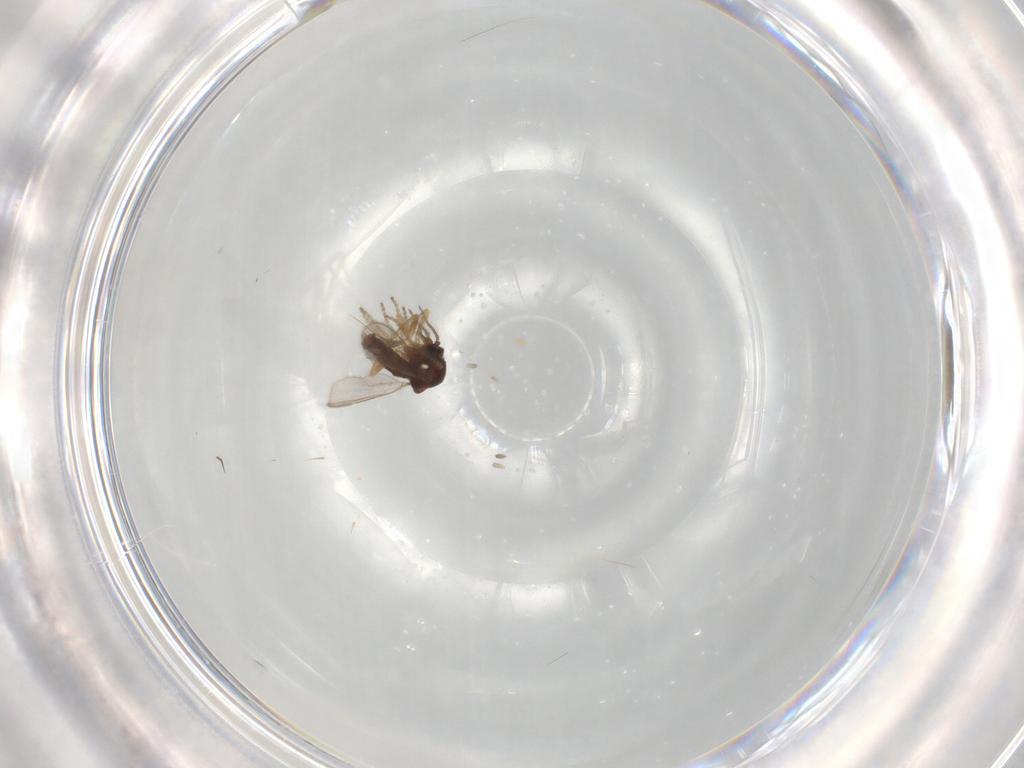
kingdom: Animalia
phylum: Arthropoda
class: Insecta
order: Diptera
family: Ceratopogonidae
